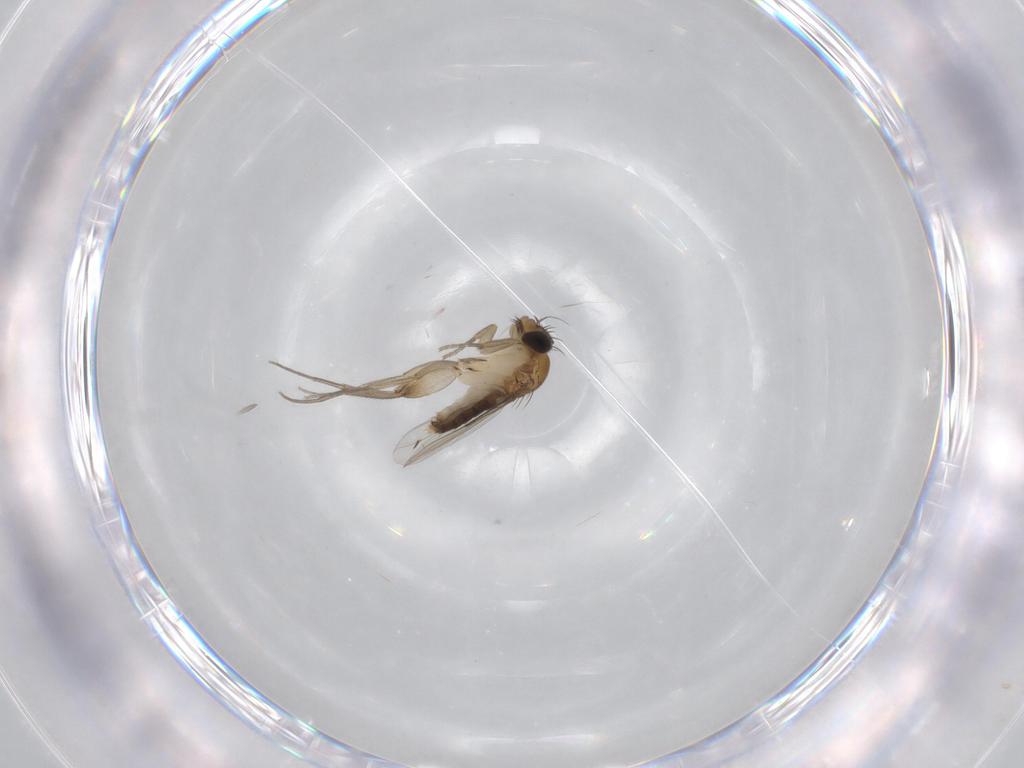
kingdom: Animalia
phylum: Arthropoda
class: Insecta
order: Diptera
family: Phoridae
